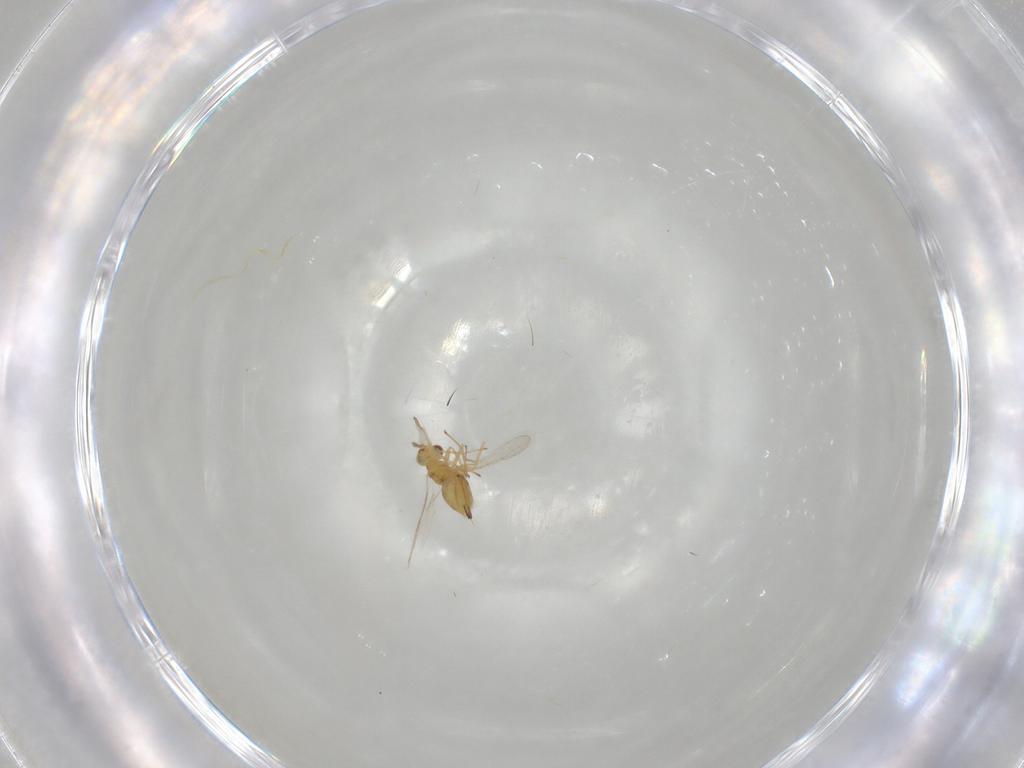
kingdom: Animalia
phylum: Arthropoda
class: Insecta
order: Hymenoptera
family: Eulophidae
